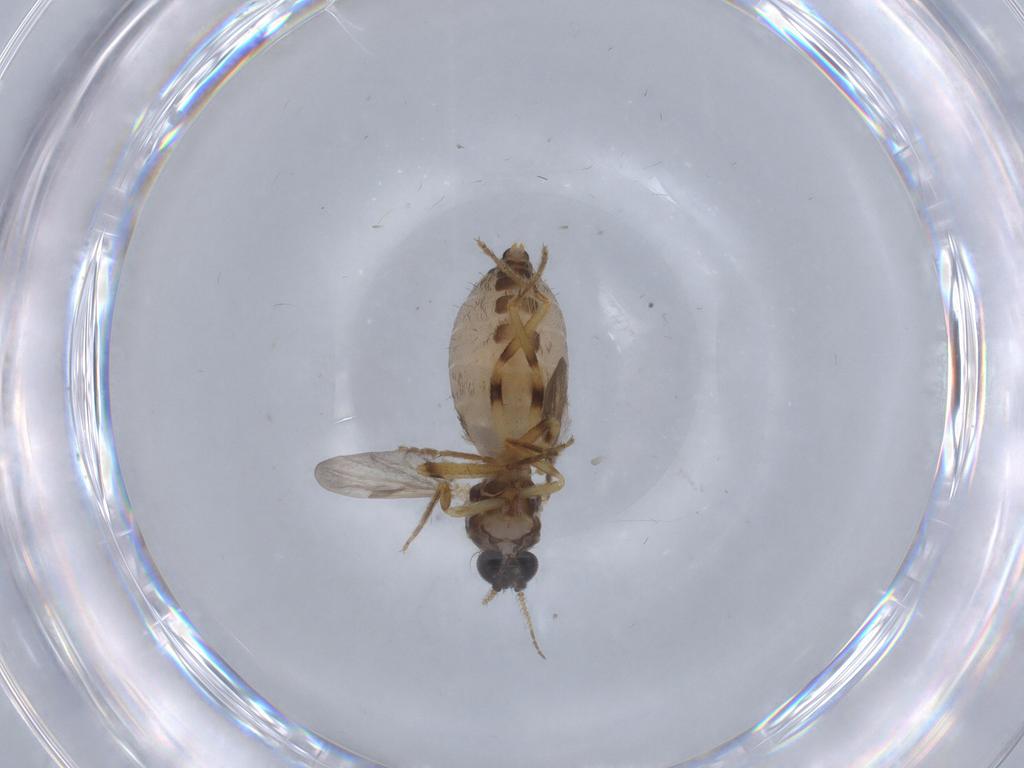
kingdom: Animalia
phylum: Arthropoda
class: Insecta
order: Diptera
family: Ceratopogonidae
